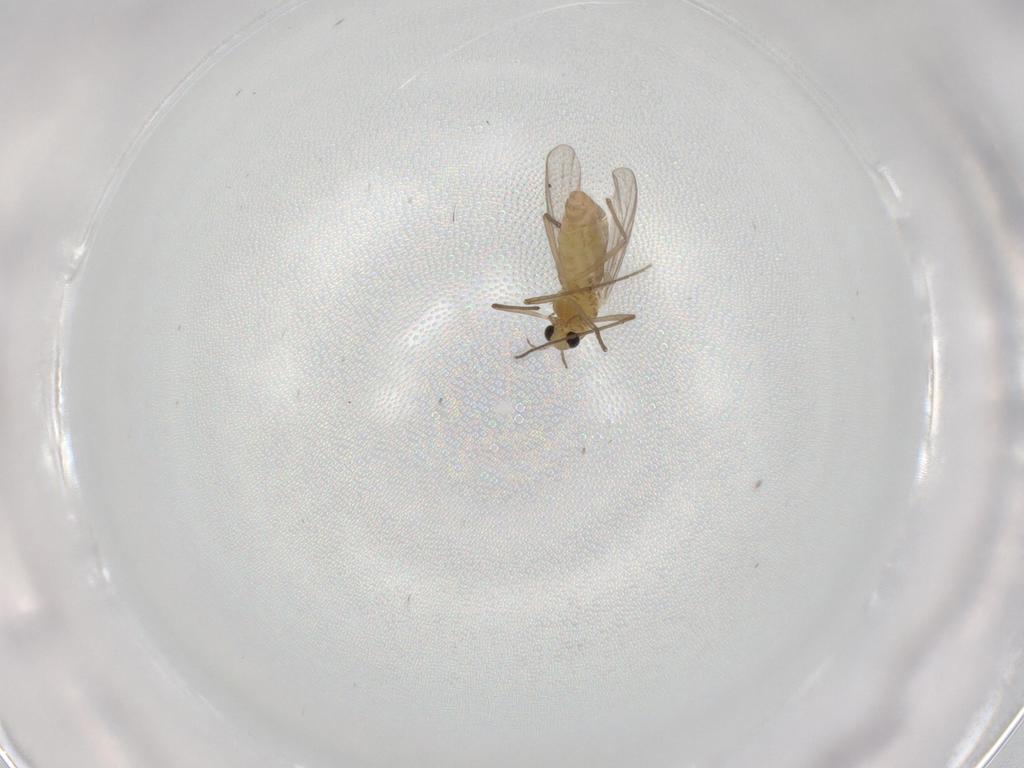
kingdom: Animalia
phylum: Arthropoda
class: Insecta
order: Diptera
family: Chironomidae
